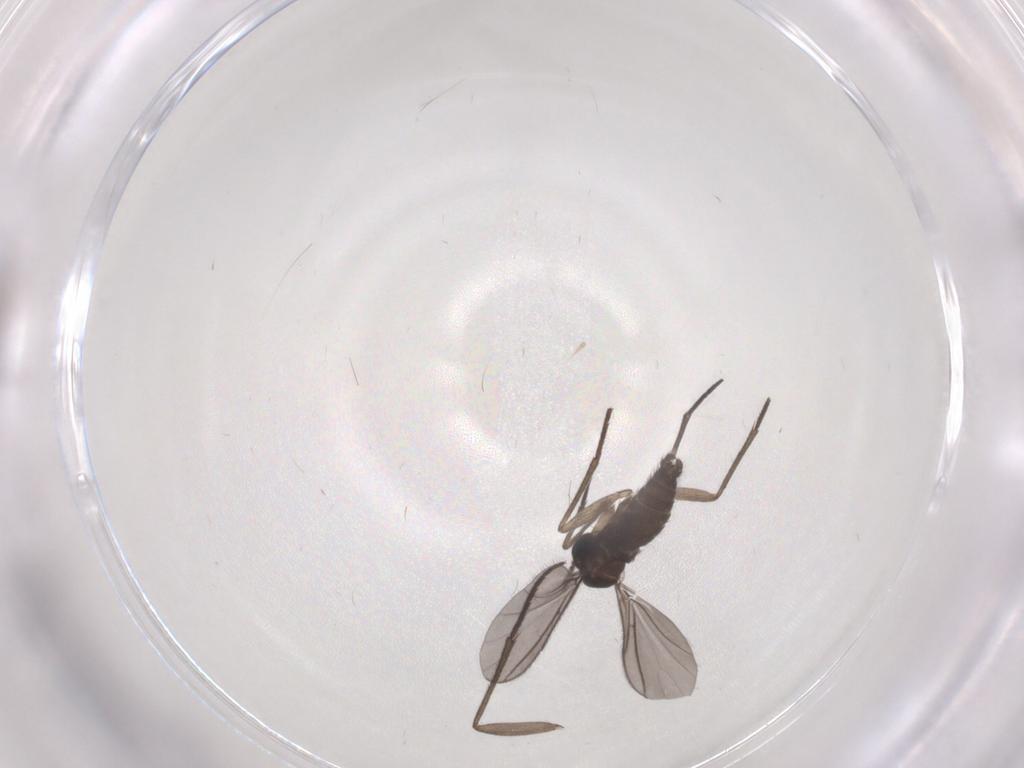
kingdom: Animalia
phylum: Arthropoda
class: Insecta
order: Diptera
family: Sciaridae
